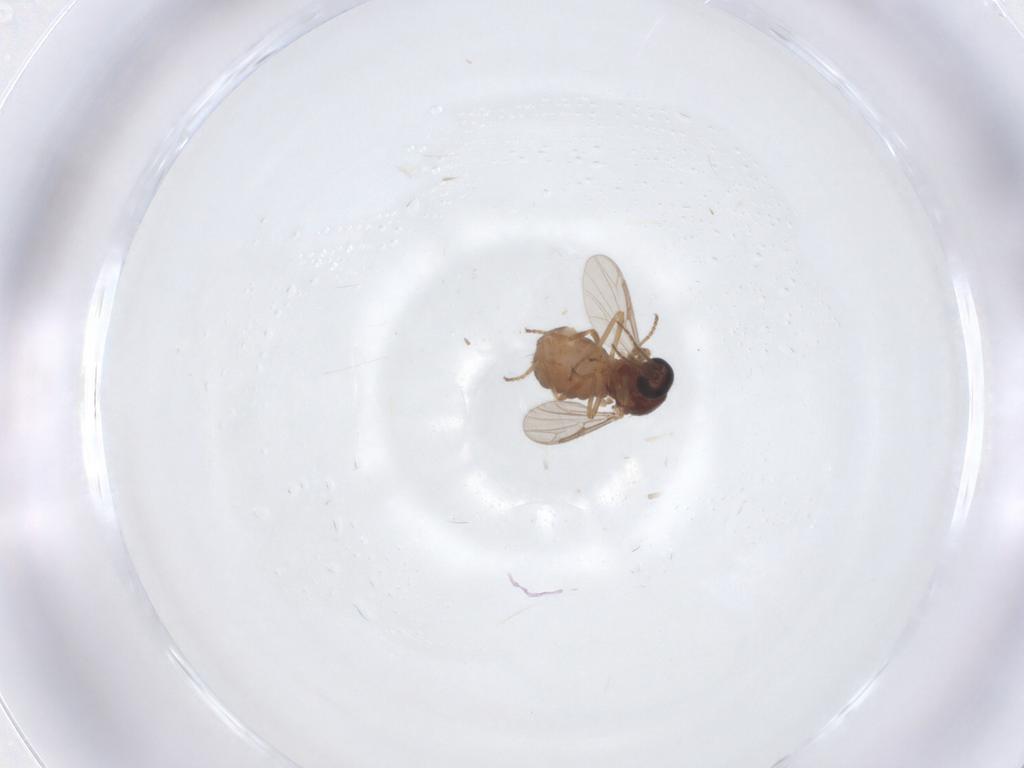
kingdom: Animalia
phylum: Arthropoda
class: Insecta
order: Diptera
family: Ceratopogonidae
